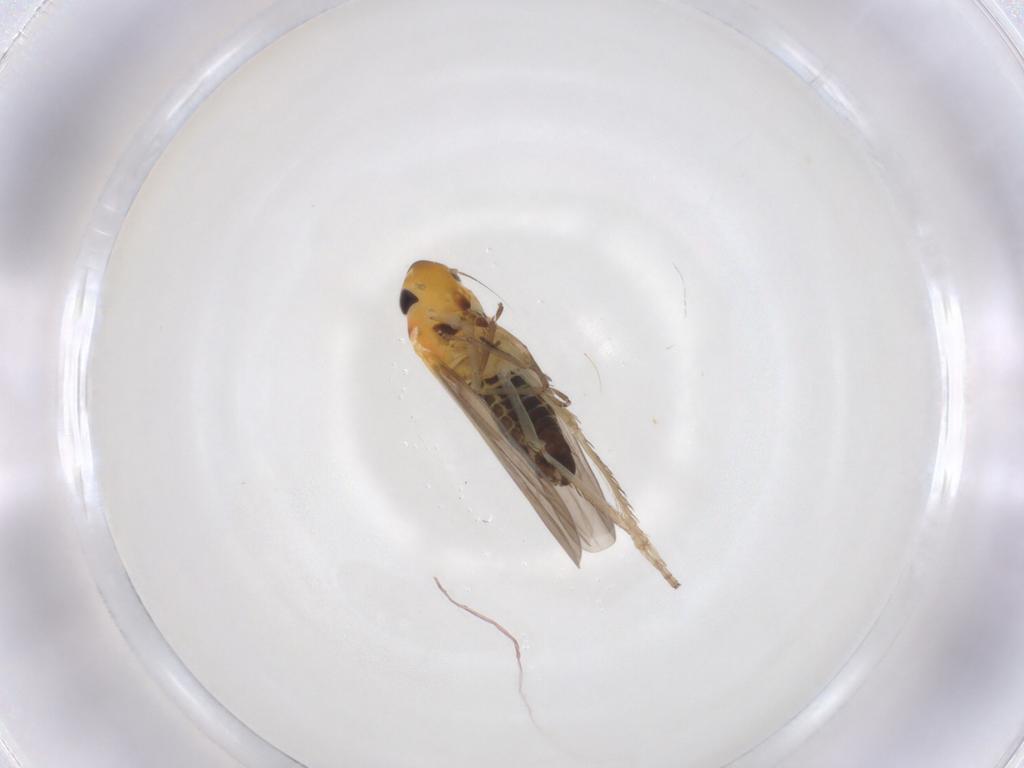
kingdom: Animalia
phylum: Arthropoda
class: Insecta
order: Hemiptera
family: Cicadellidae
